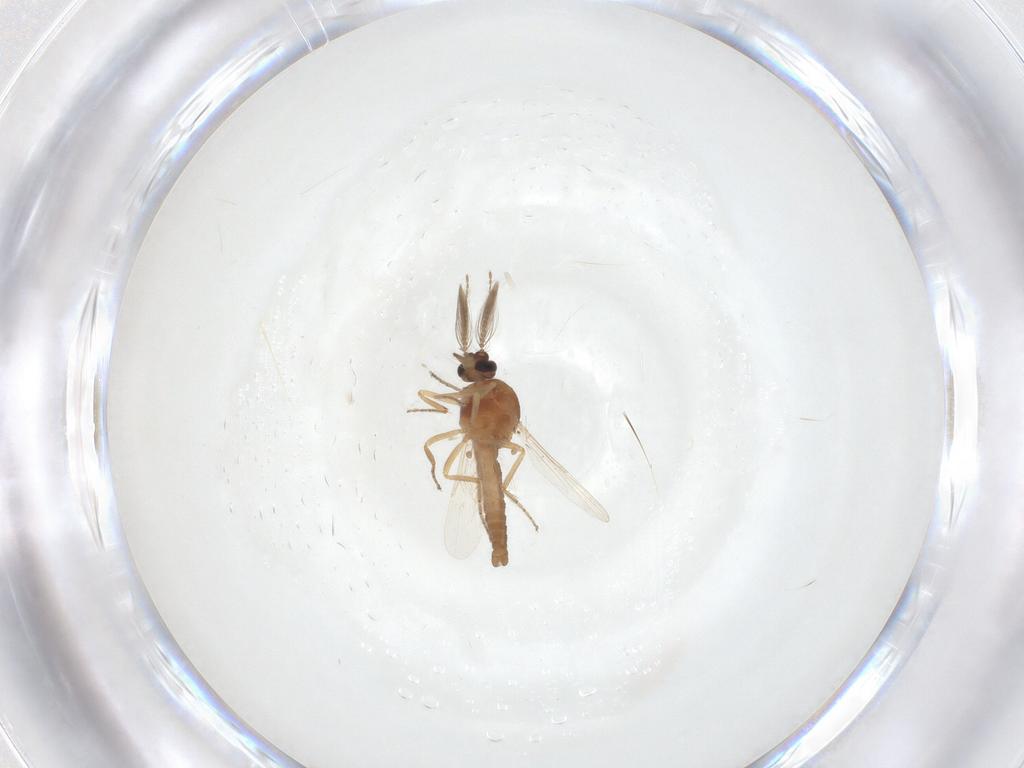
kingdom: Animalia
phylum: Arthropoda
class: Insecta
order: Diptera
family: Ceratopogonidae
